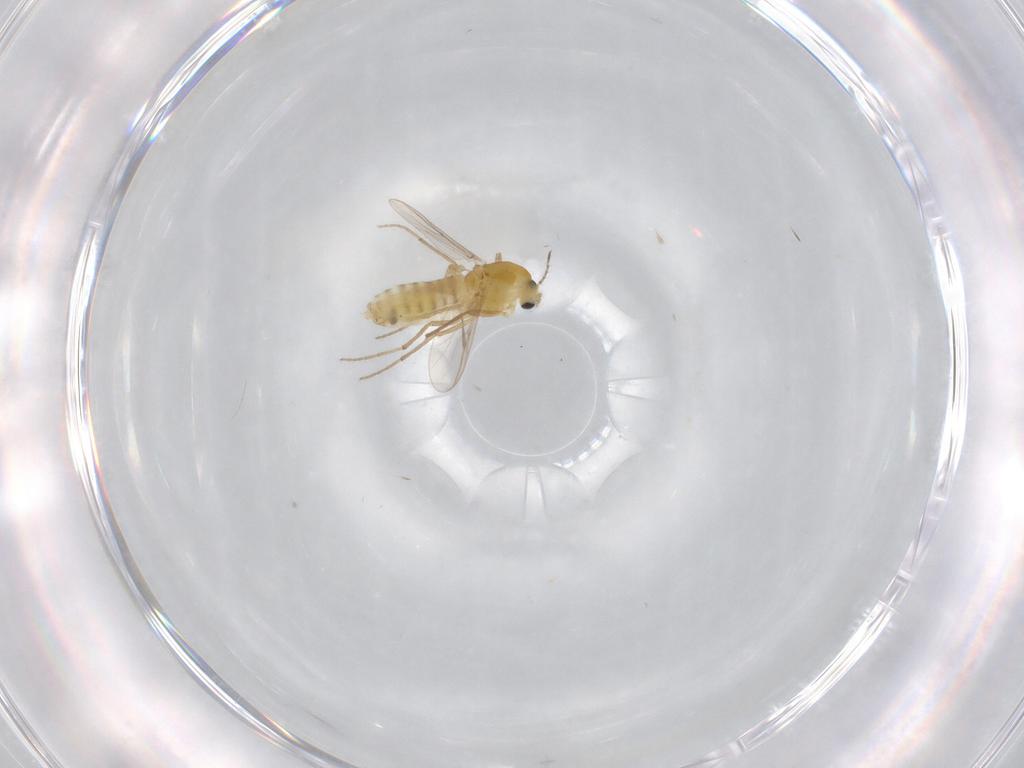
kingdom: Animalia
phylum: Arthropoda
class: Insecta
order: Diptera
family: Chironomidae
